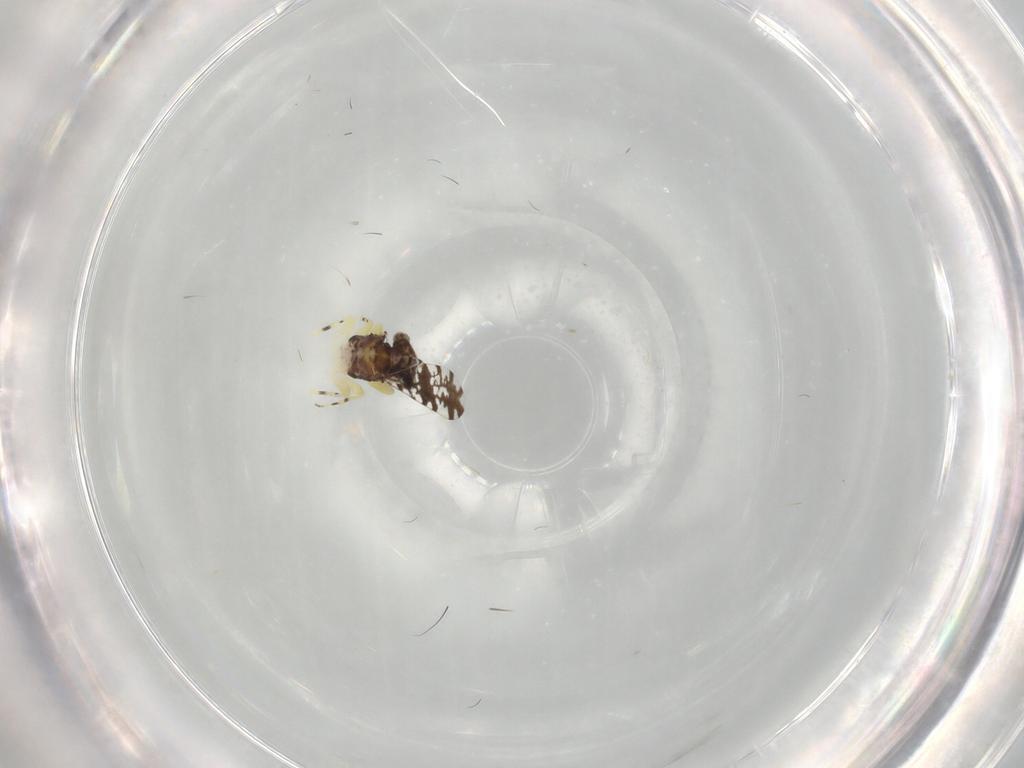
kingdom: Animalia
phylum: Arthropoda
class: Insecta
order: Psocodea
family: Psoquillidae
